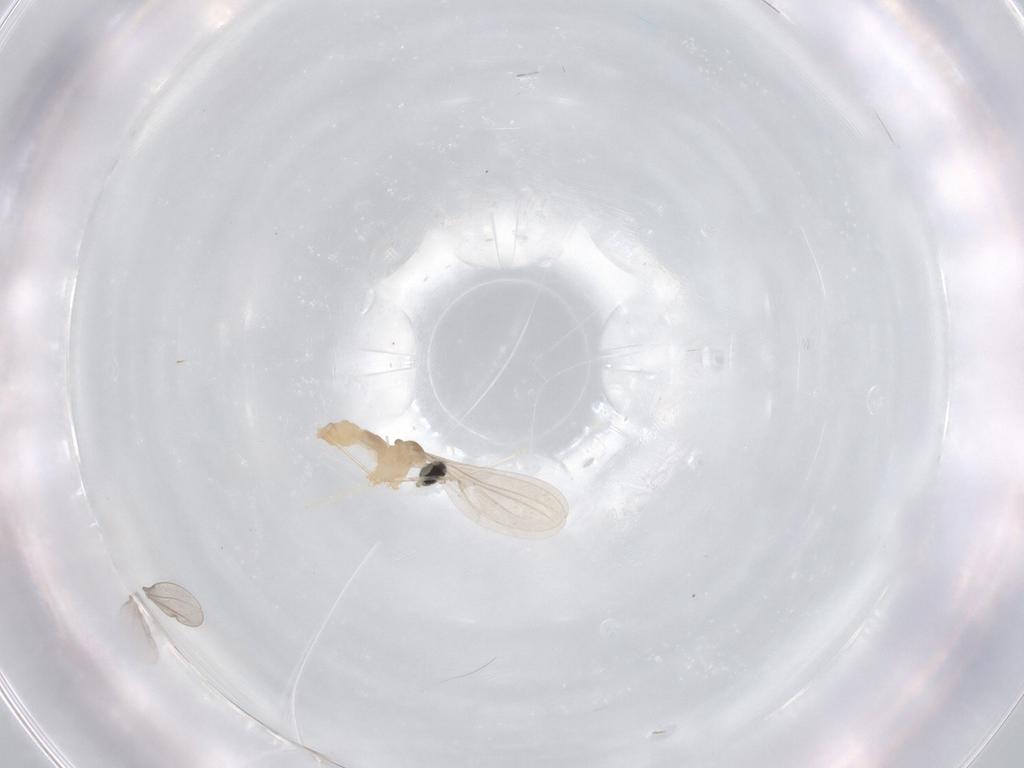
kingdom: Animalia
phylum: Arthropoda
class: Insecta
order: Diptera
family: Cecidomyiidae
